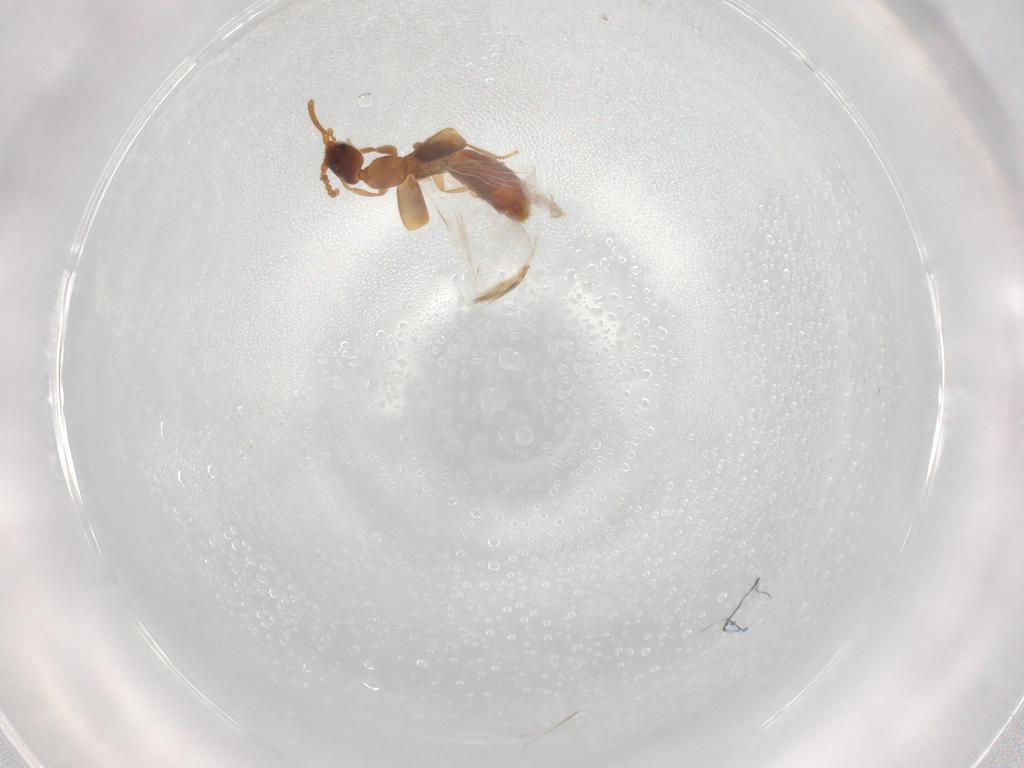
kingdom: Animalia
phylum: Arthropoda
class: Insecta
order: Coleoptera
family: Staphylinidae
